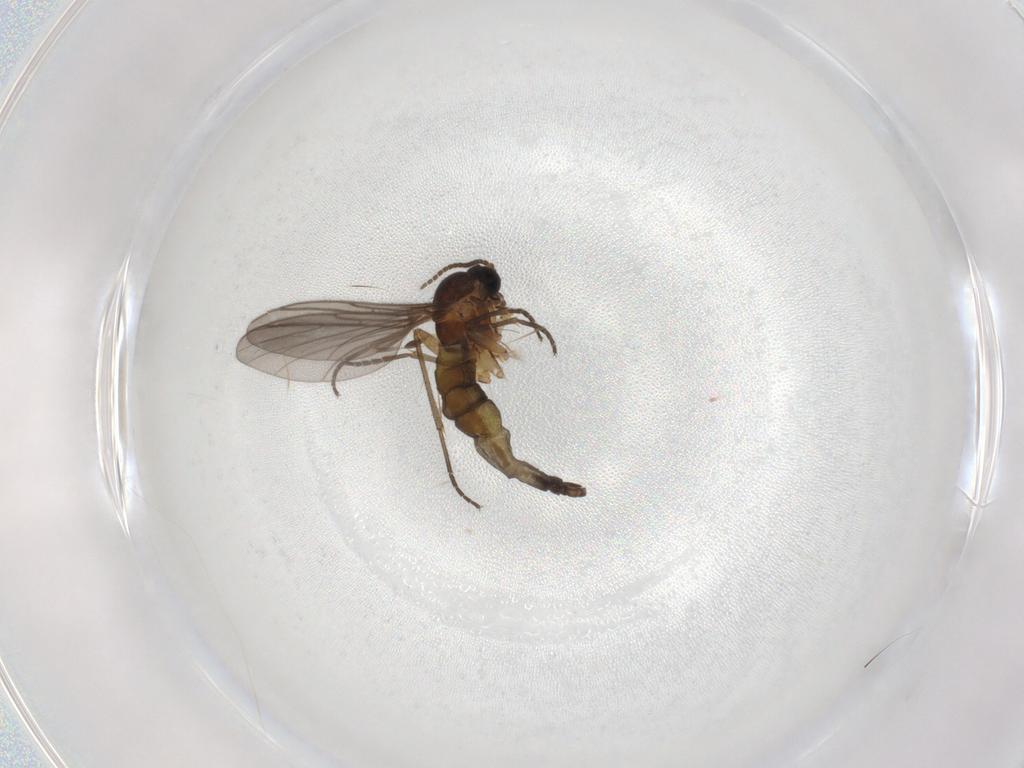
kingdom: Animalia
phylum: Arthropoda
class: Insecta
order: Diptera
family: Sciaridae
